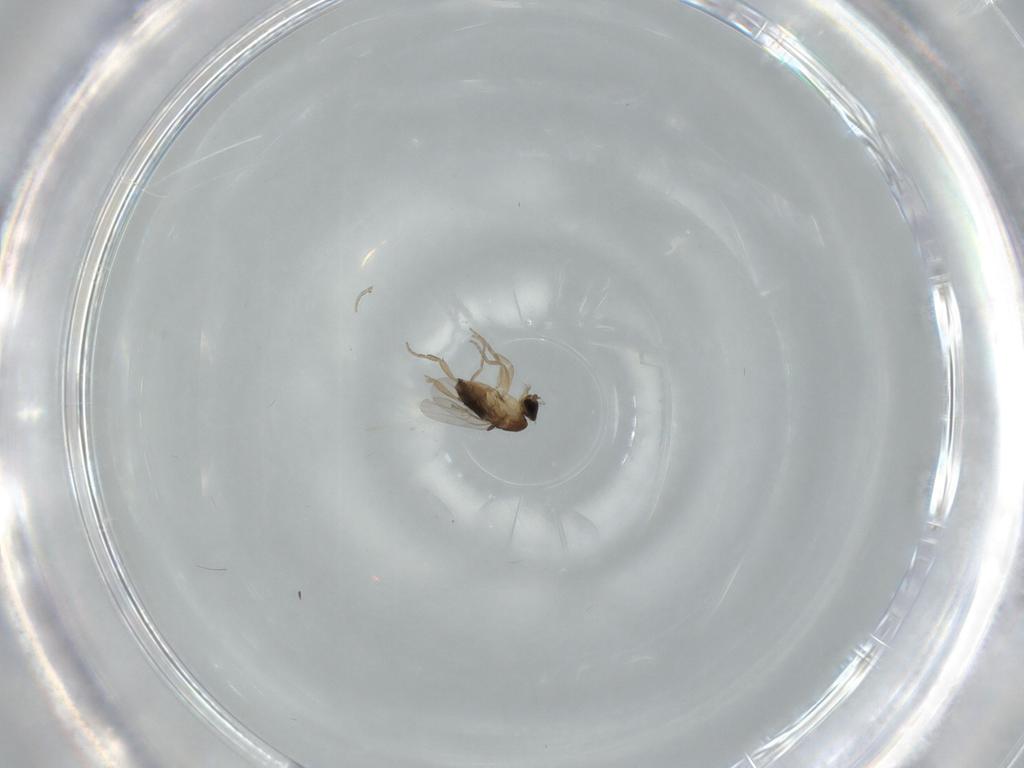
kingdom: Animalia
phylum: Arthropoda
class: Insecta
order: Diptera
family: Phoridae
